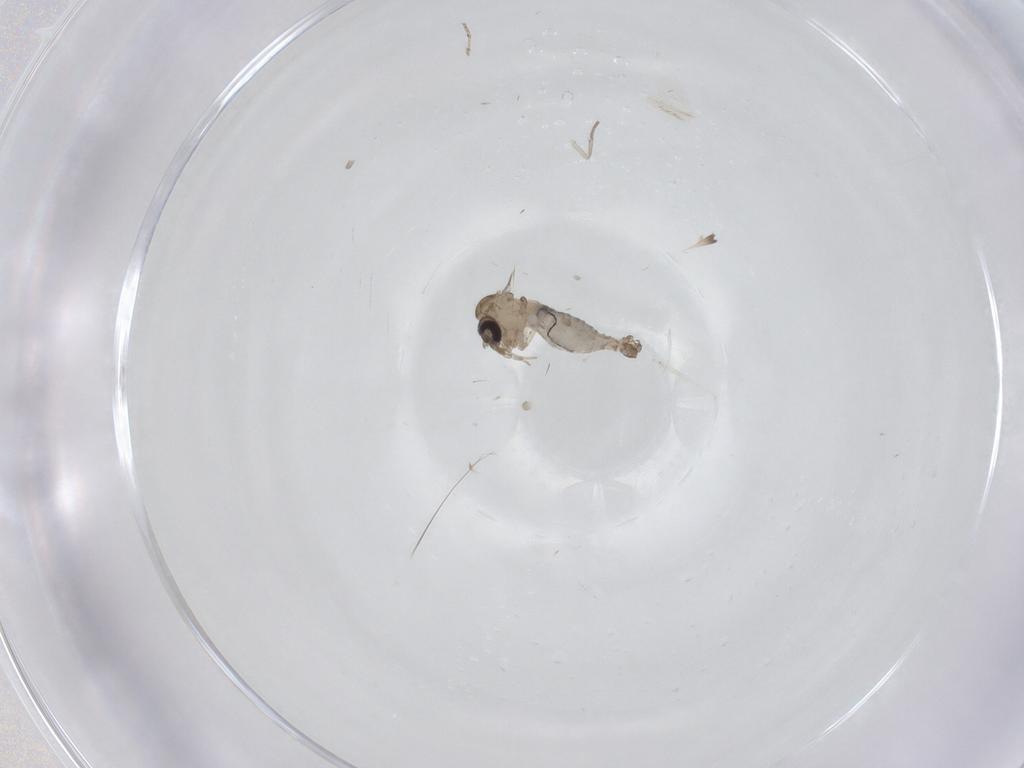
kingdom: Animalia
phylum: Arthropoda
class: Insecta
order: Diptera
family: Psychodidae
